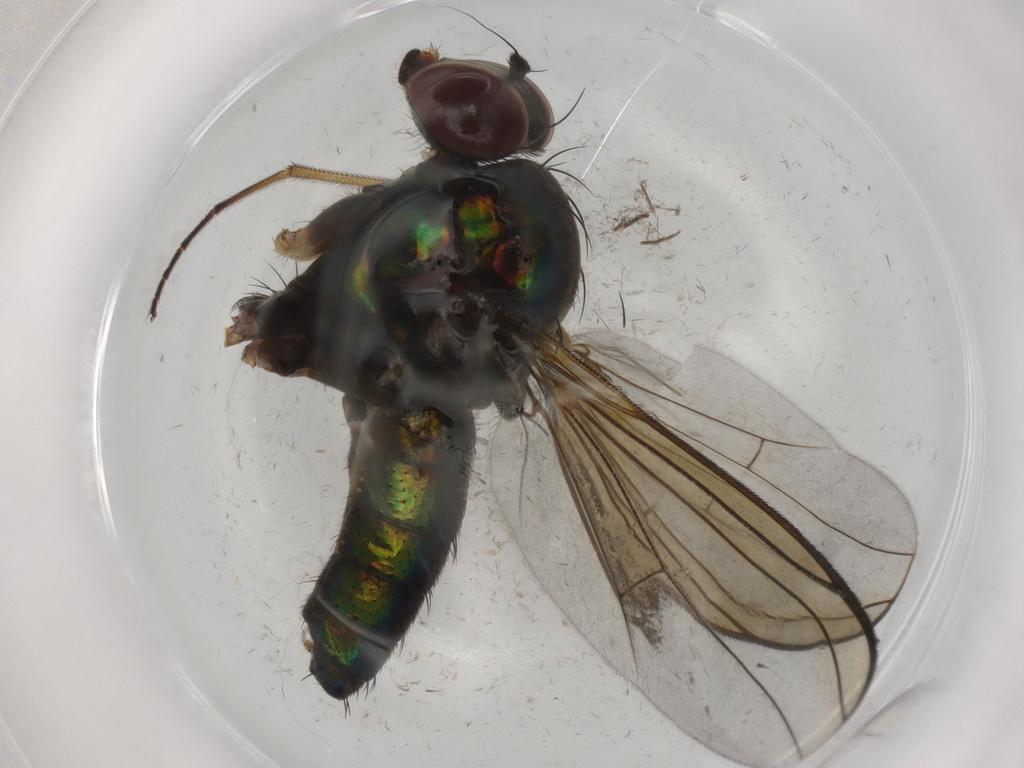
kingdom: Animalia
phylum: Arthropoda
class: Insecta
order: Diptera
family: Dolichopodidae
